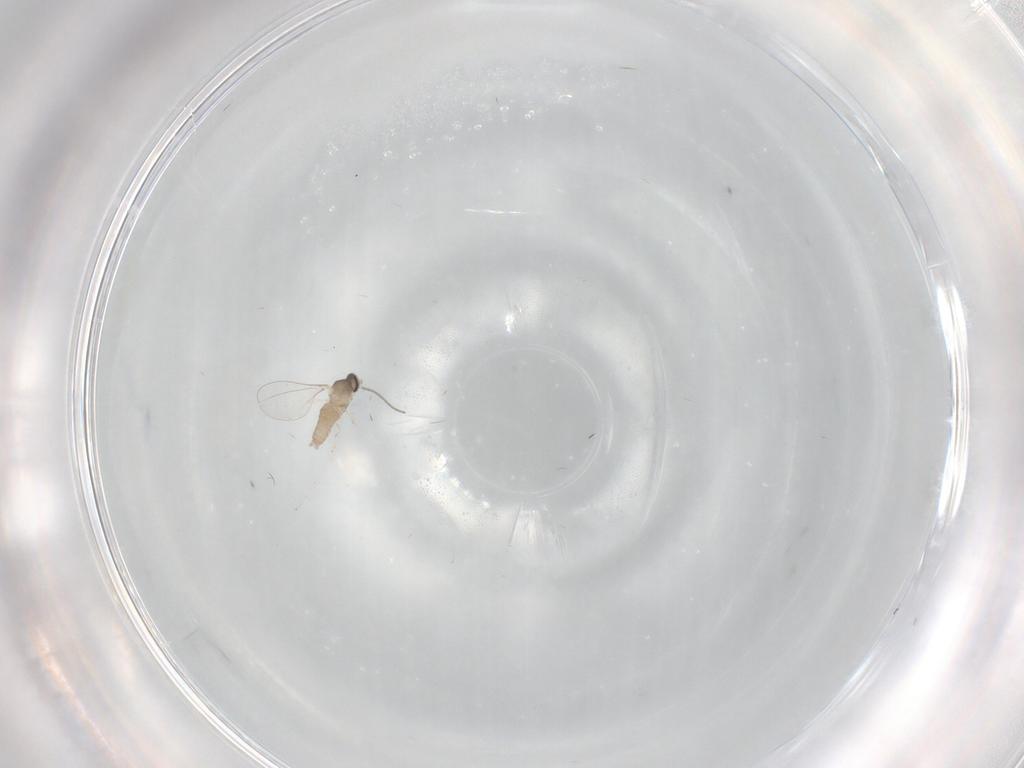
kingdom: Animalia
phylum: Arthropoda
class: Insecta
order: Diptera
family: Cecidomyiidae
